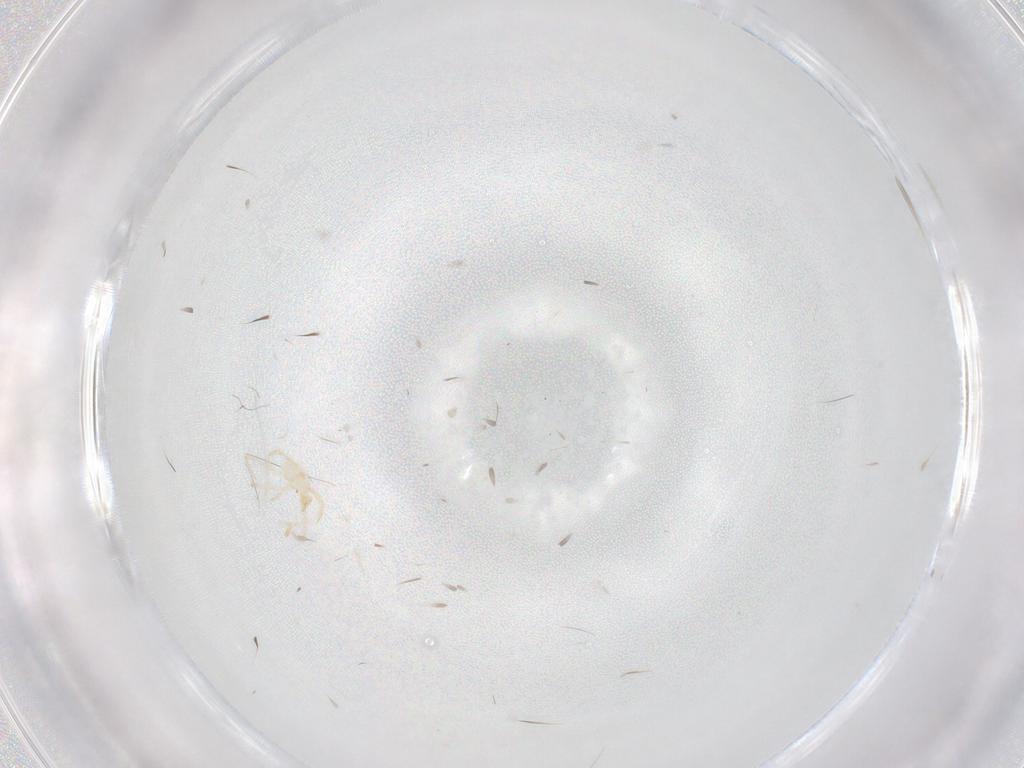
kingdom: Animalia
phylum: Arthropoda
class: Arachnida
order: Trombidiformes
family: Erythraeidae
